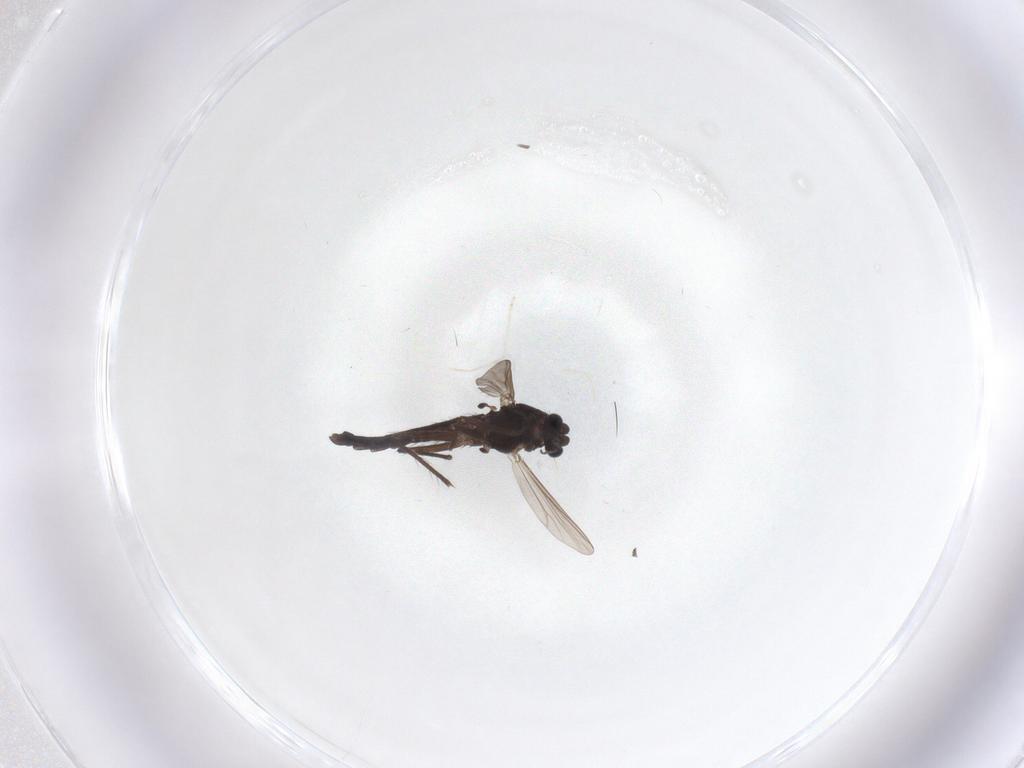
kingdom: Animalia
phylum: Arthropoda
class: Insecta
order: Diptera
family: Chironomidae
